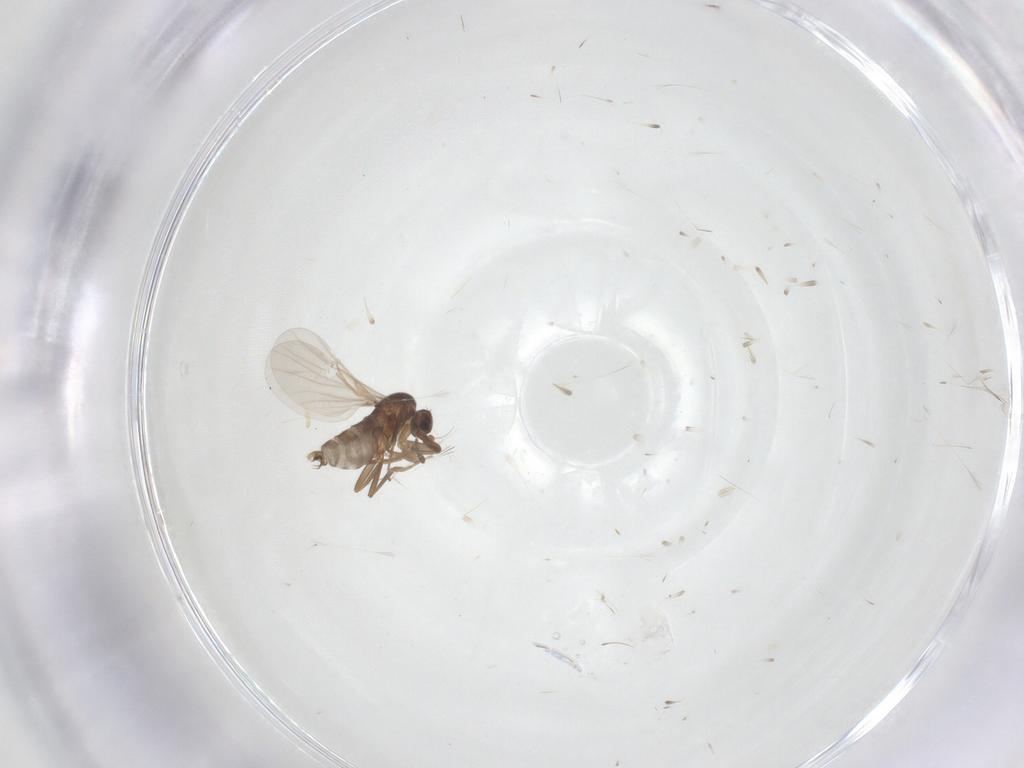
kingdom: Animalia
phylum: Arthropoda
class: Insecta
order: Diptera
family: Cecidomyiidae
